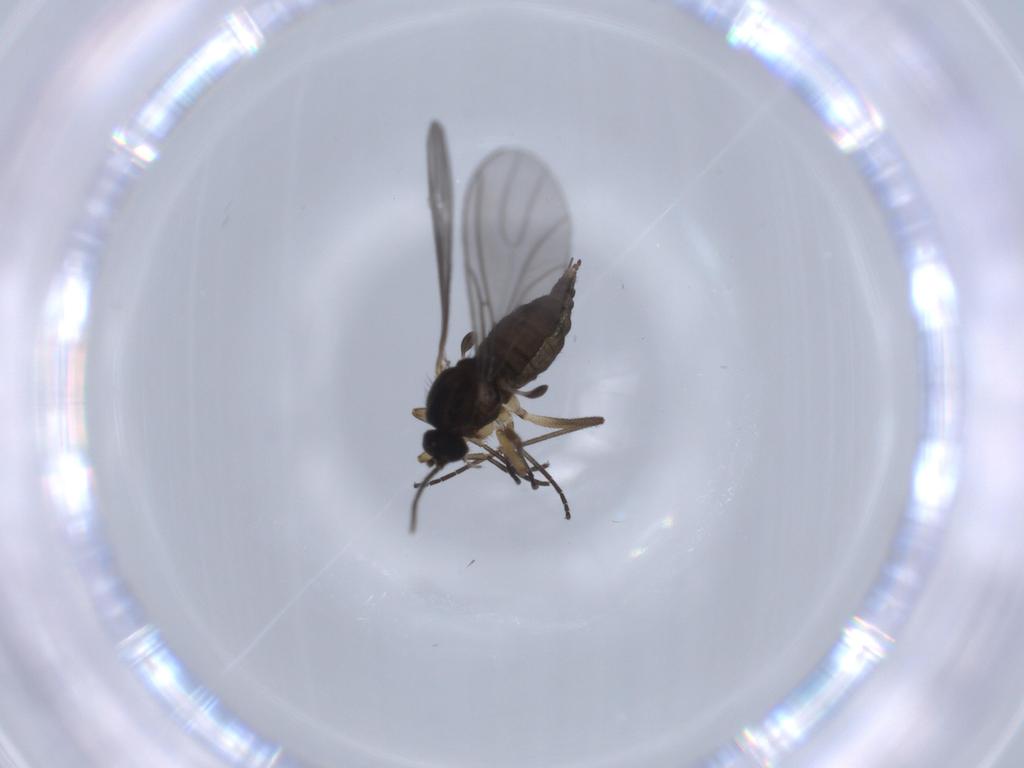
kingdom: Animalia
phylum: Arthropoda
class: Insecta
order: Diptera
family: Sciaridae
